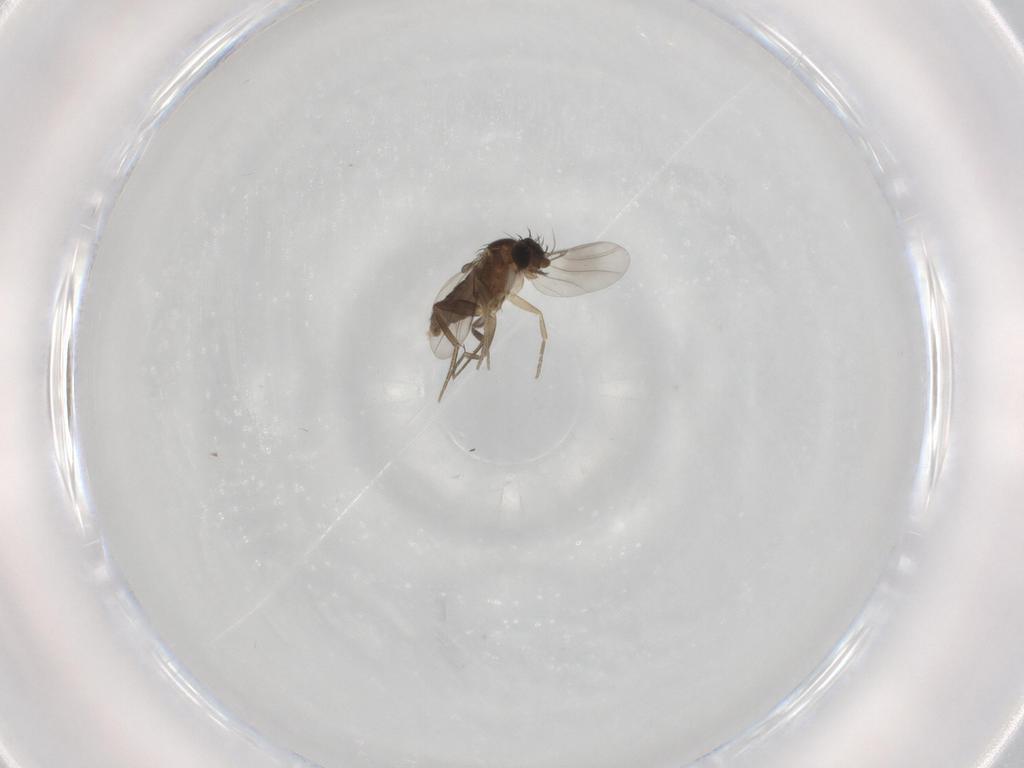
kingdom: Animalia
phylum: Arthropoda
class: Insecta
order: Diptera
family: Phoridae
